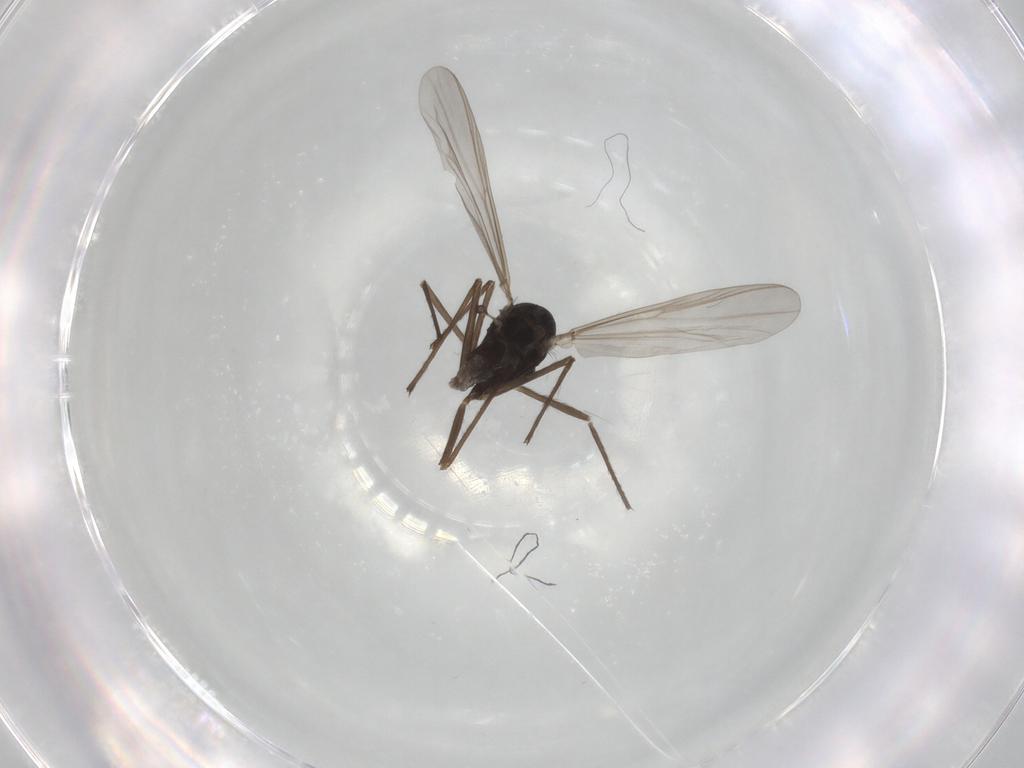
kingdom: Animalia
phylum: Arthropoda
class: Insecta
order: Diptera
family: Chironomidae
